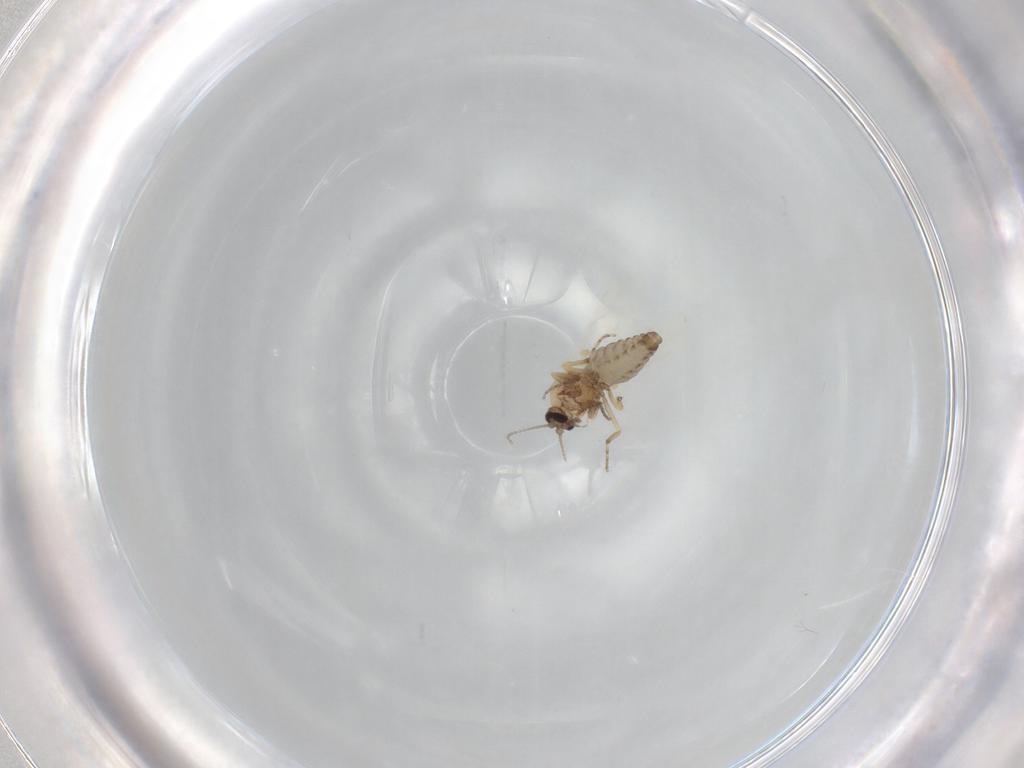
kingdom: Animalia
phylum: Arthropoda
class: Insecta
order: Diptera
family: Ceratopogonidae
